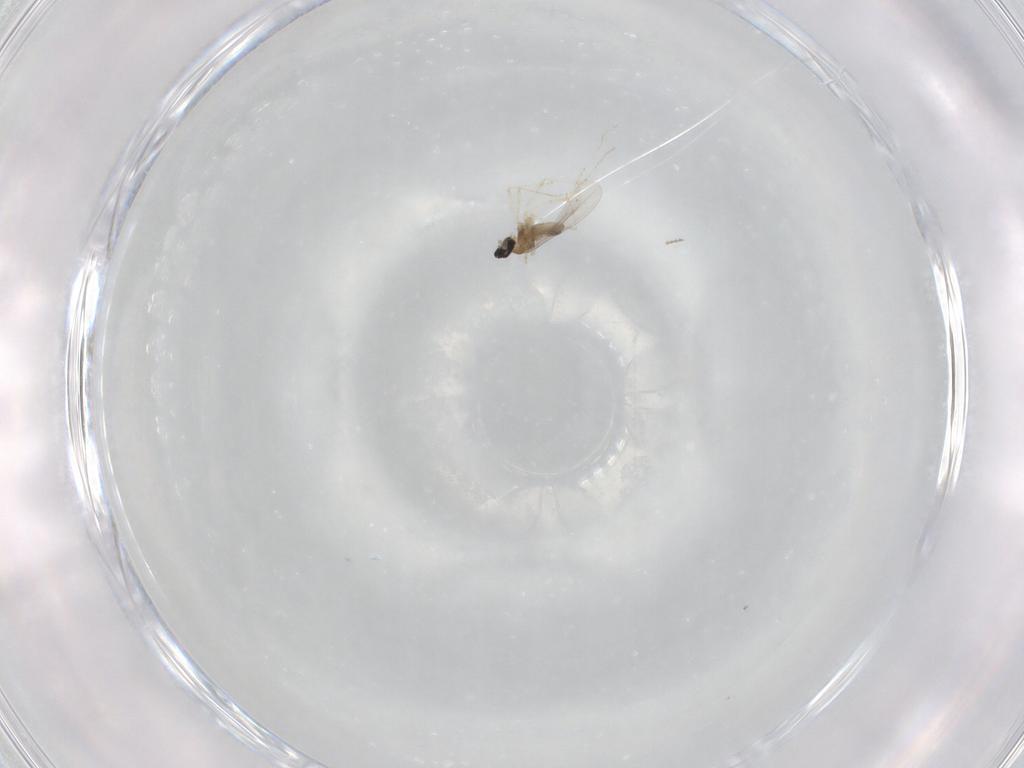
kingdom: Animalia
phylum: Arthropoda
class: Insecta
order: Diptera
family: Cecidomyiidae
